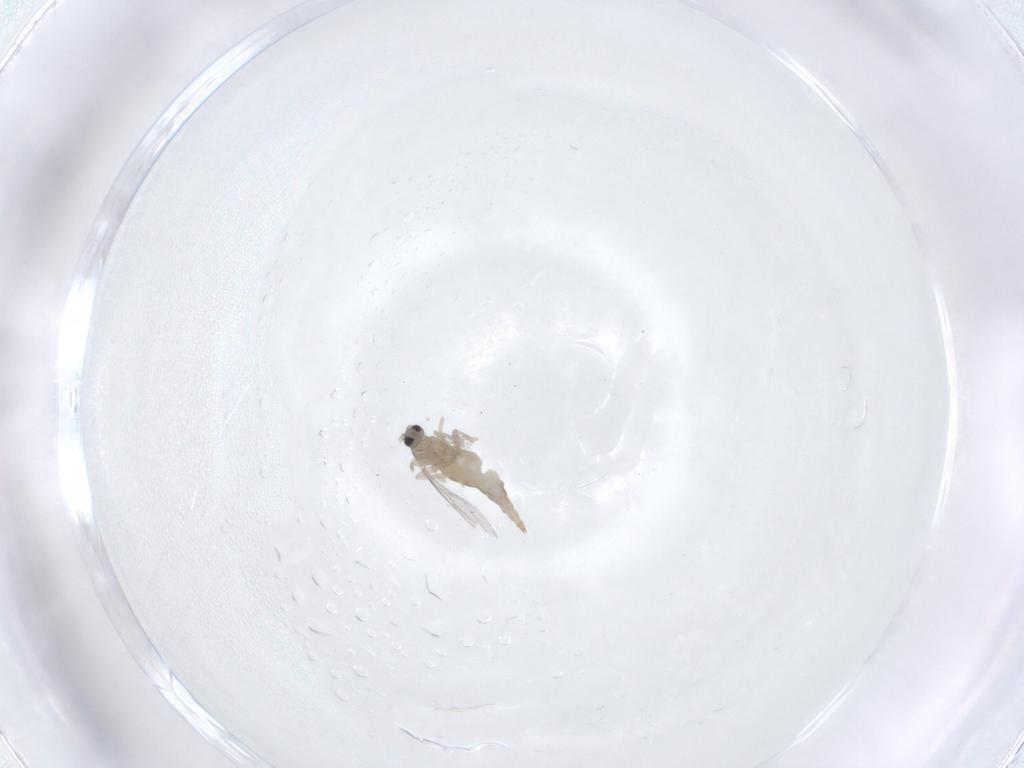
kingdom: Animalia
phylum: Arthropoda
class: Insecta
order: Diptera
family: Cecidomyiidae
